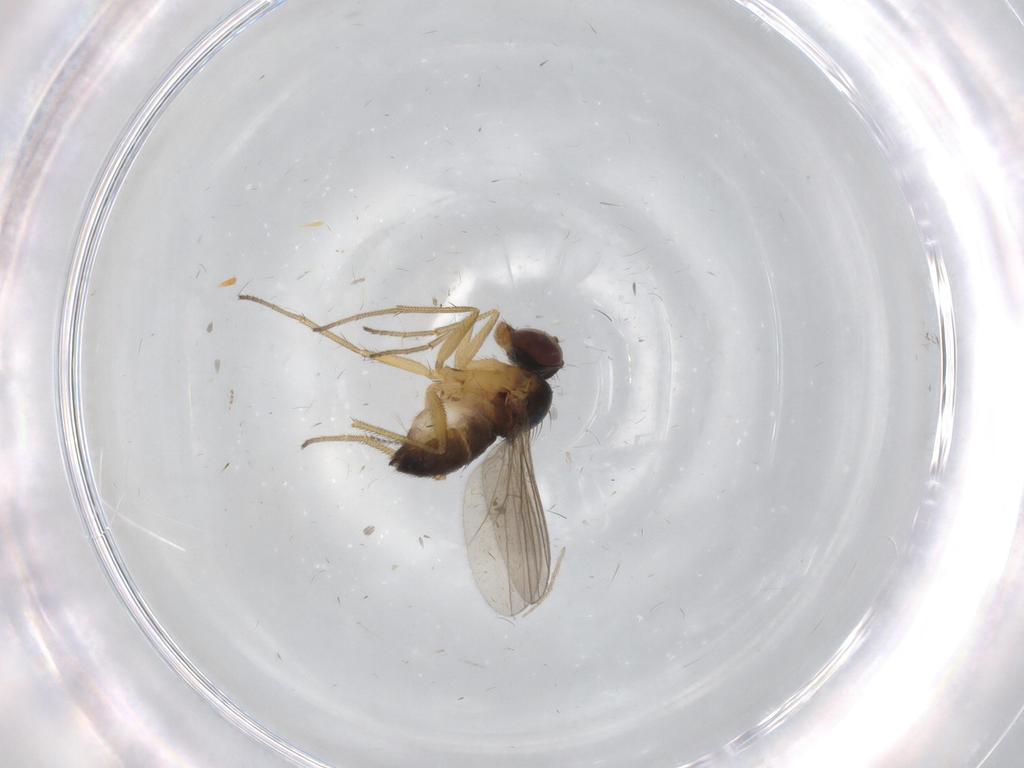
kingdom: Animalia
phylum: Arthropoda
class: Insecta
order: Diptera
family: Dolichopodidae
